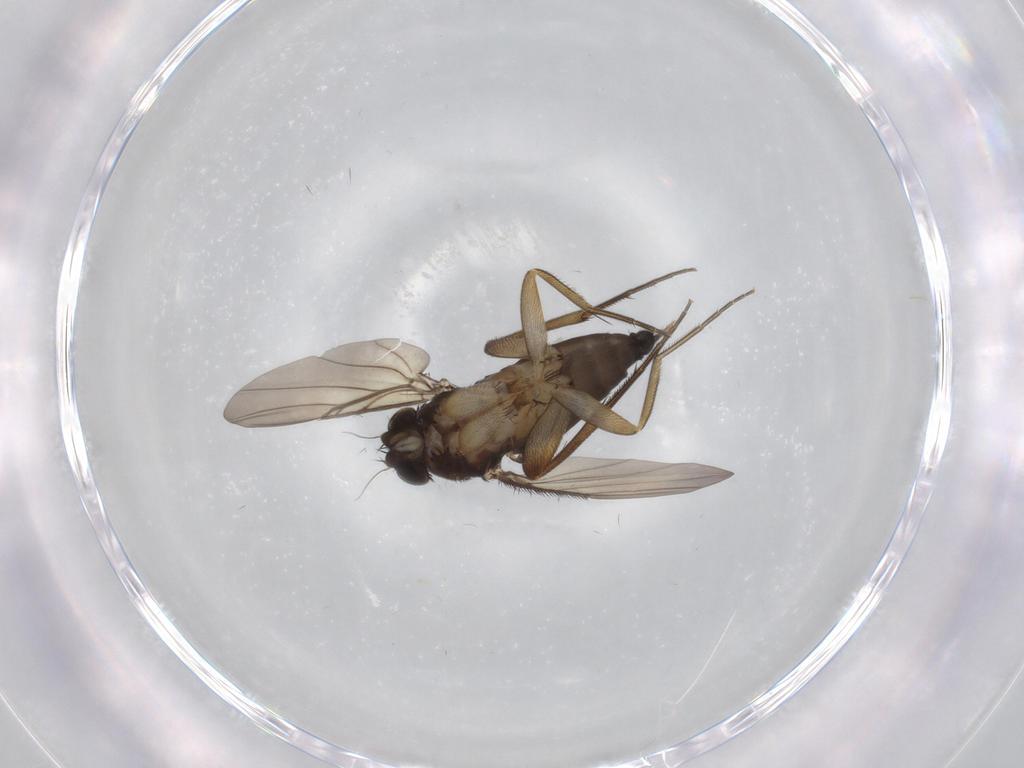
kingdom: Animalia
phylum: Arthropoda
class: Insecta
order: Diptera
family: Phoridae
